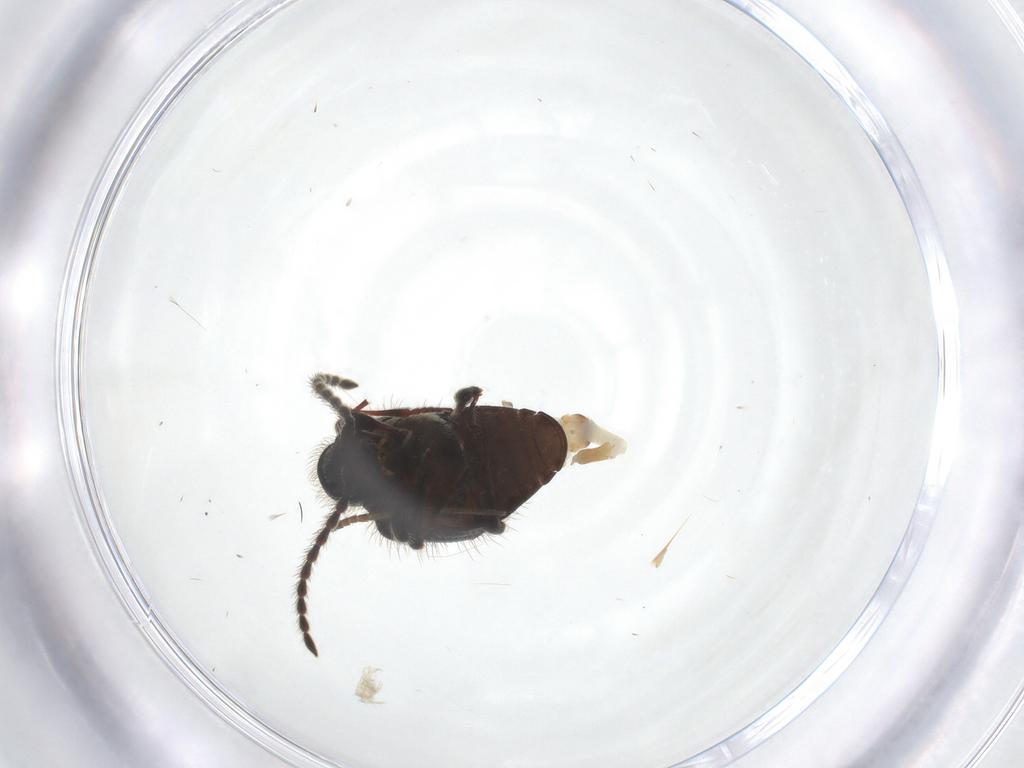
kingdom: Animalia
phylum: Arthropoda
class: Insecta
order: Coleoptera
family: Ptinidae
